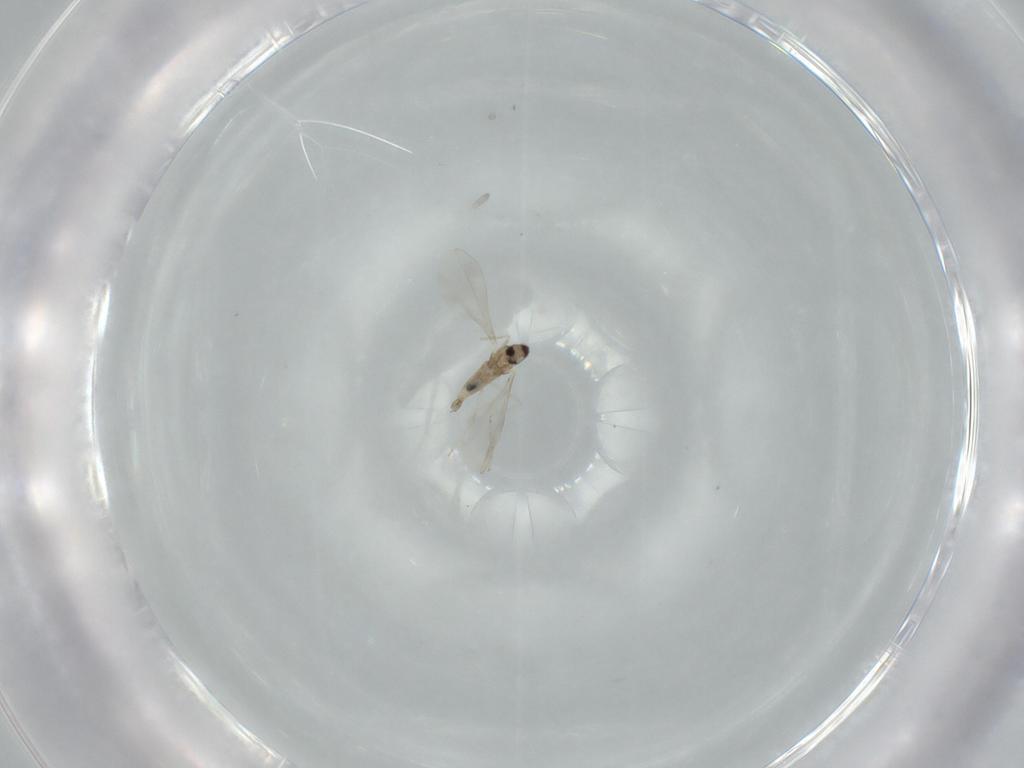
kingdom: Animalia
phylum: Arthropoda
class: Insecta
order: Diptera
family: Cecidomyiidae
